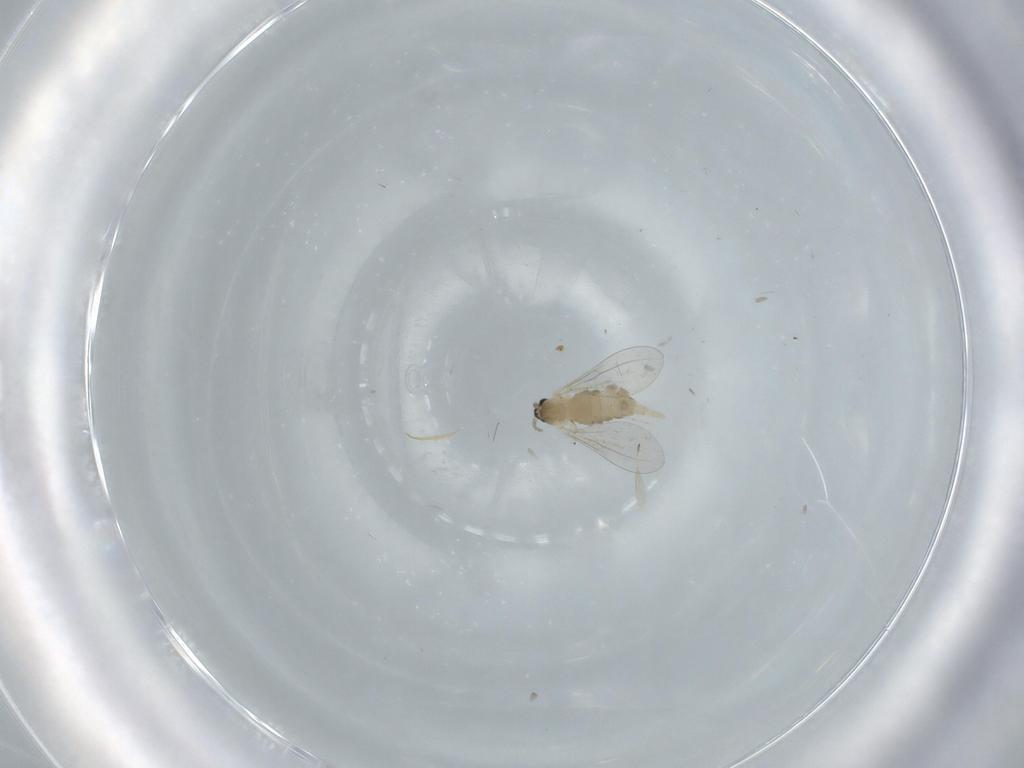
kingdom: Animalia
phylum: Arthropoda
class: Insecta
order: Diptera
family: Cecidomyiidae
